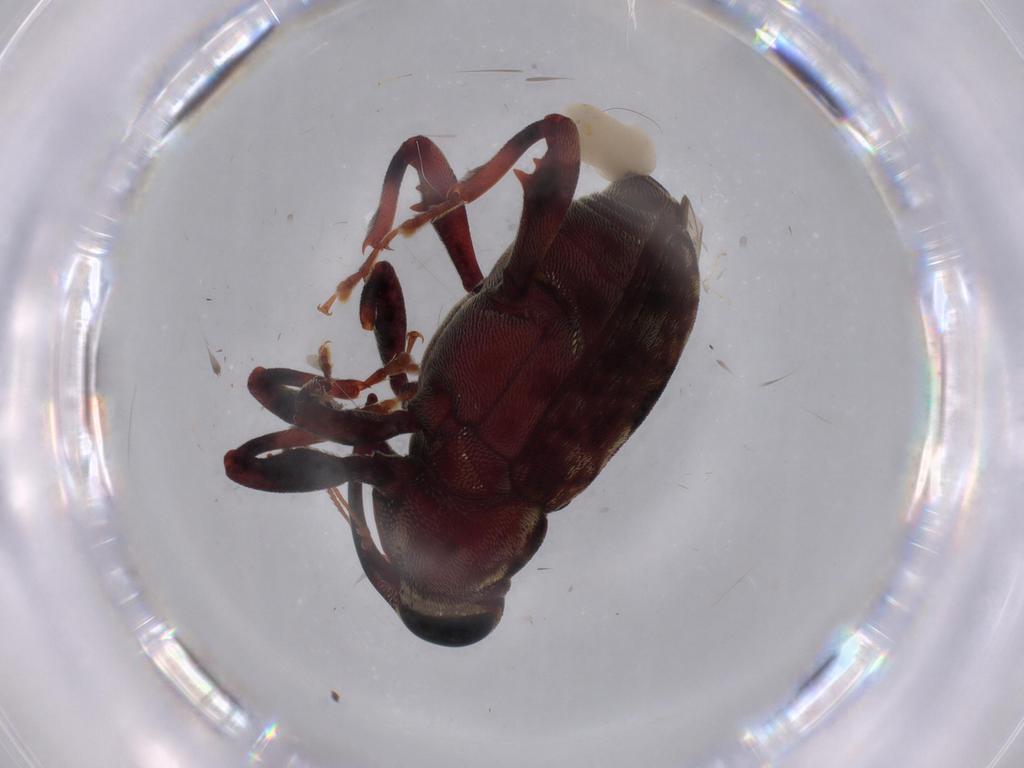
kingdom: Animalia
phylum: Arthropoda
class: Insecta
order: Coleoptera
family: Curculionidae
